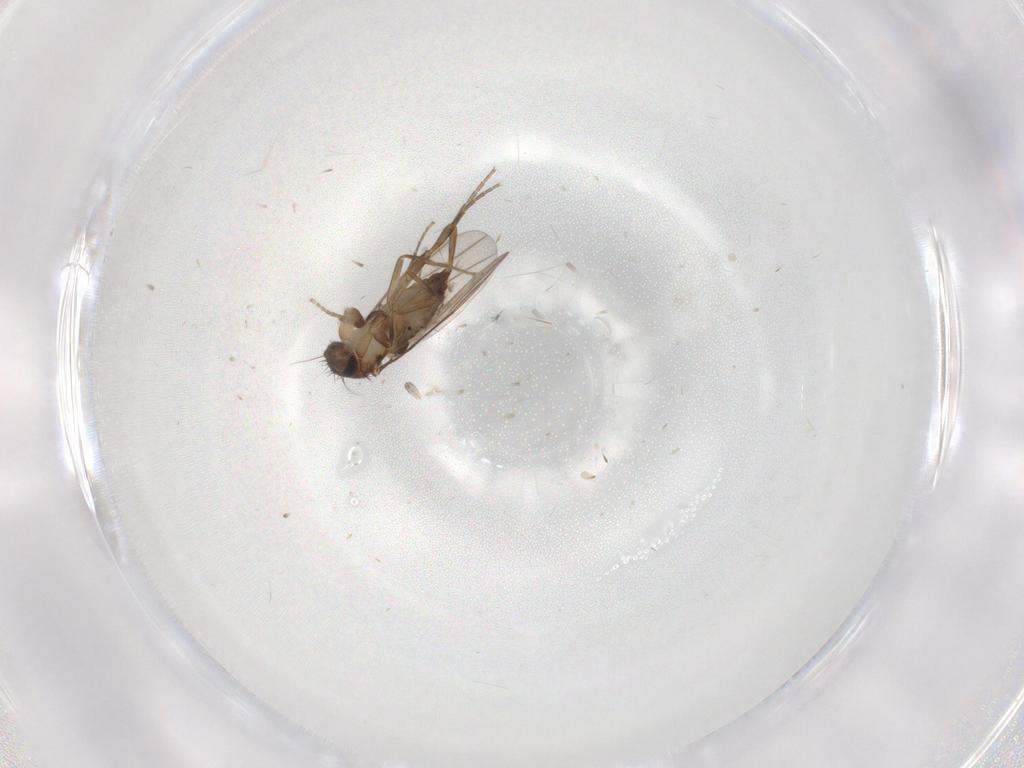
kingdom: Animalia
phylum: Arthropoda
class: Insecta
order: Diptera
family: Phoridae
